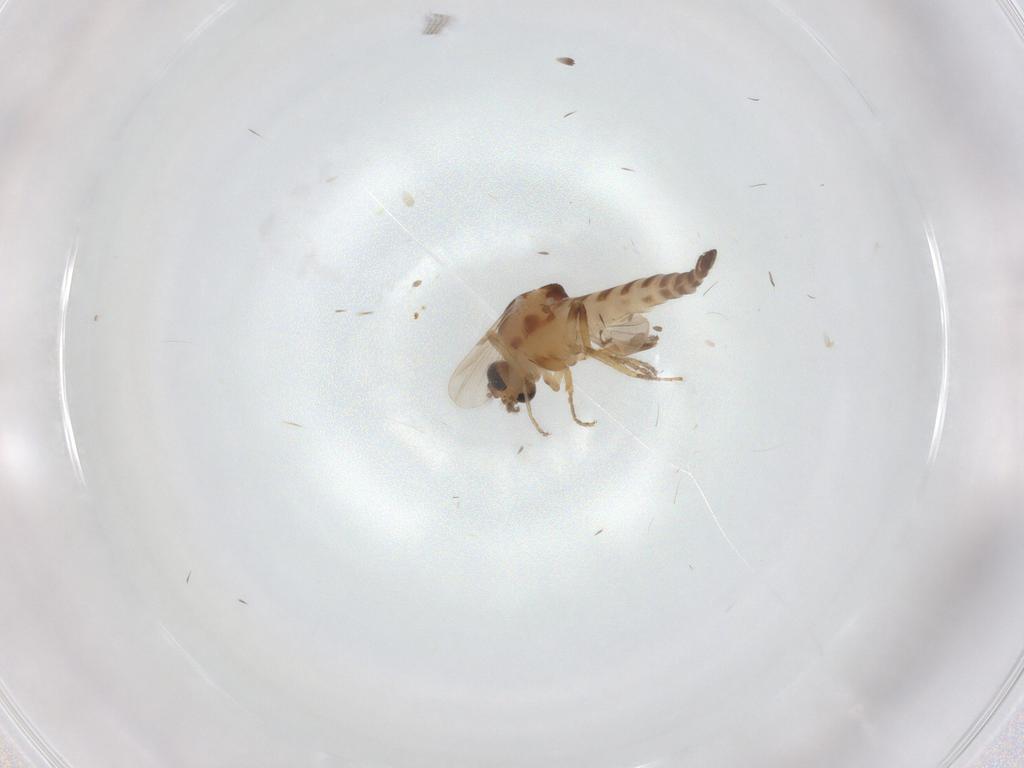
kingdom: Animalia
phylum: Arthropoda
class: Insecta
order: Diptera
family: Ceratopogonidae
